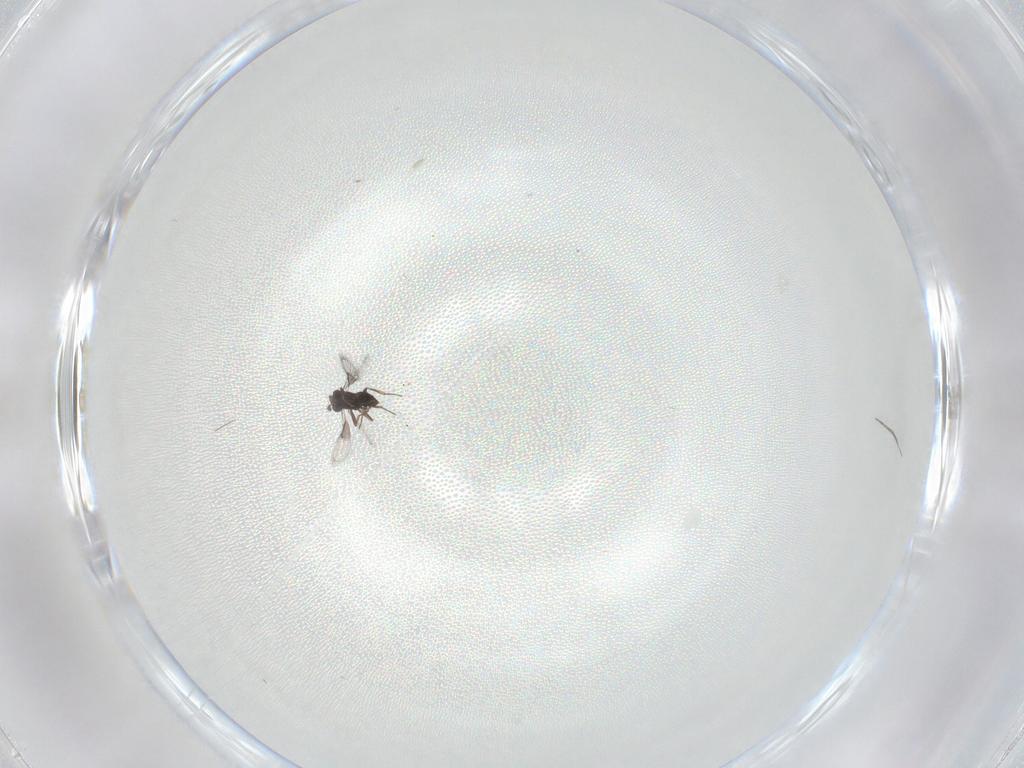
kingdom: Animalia
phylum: Arthropoda
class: Insecta
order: Hymenoptera
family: Trichogrammatidae
